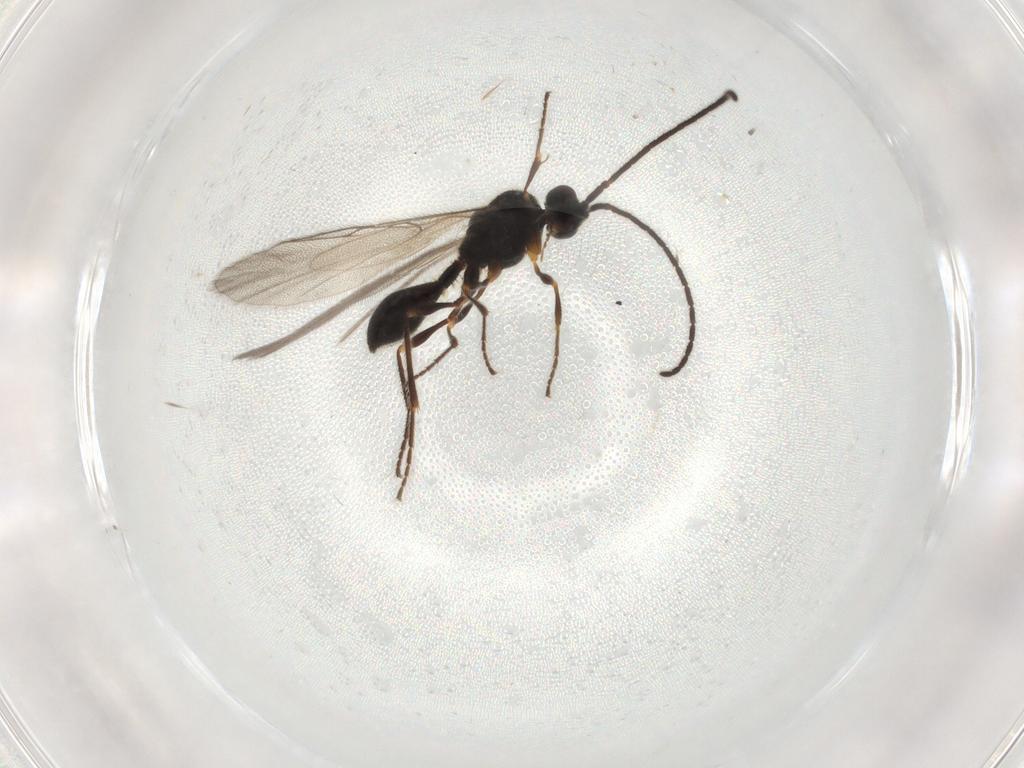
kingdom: Animalia
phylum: Arthropoda
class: Insecta
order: Hymenoptera
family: Diapriidae
